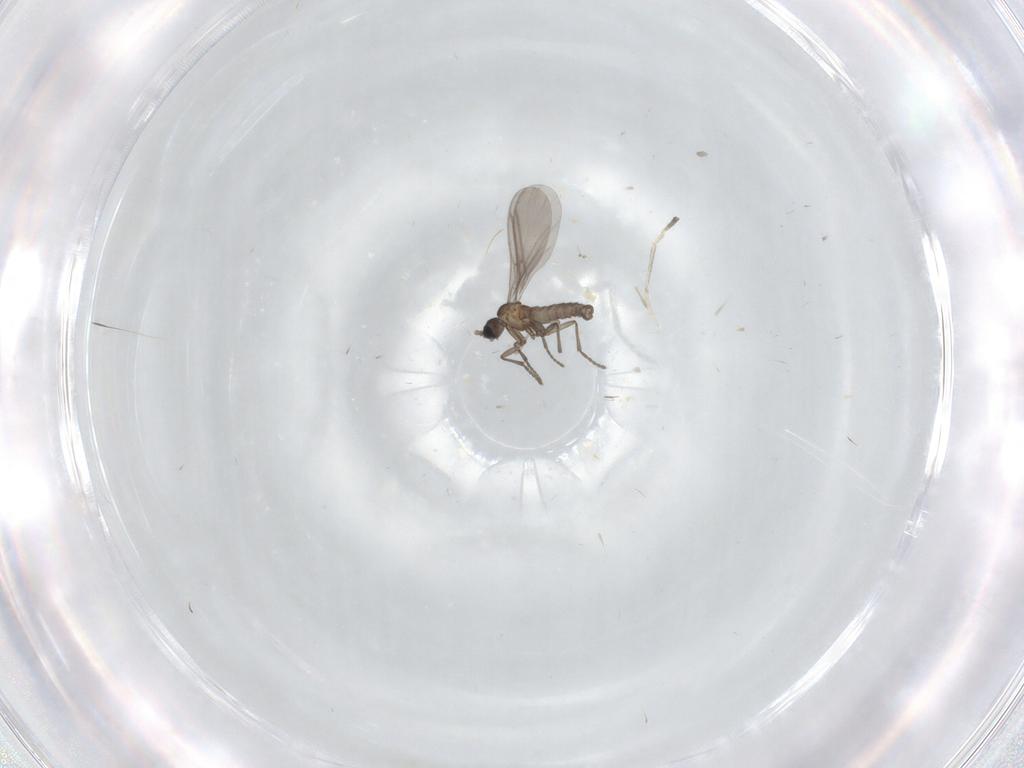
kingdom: Animalia
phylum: Arthropoda
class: Insecta
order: Diptera
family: Sciaridae
